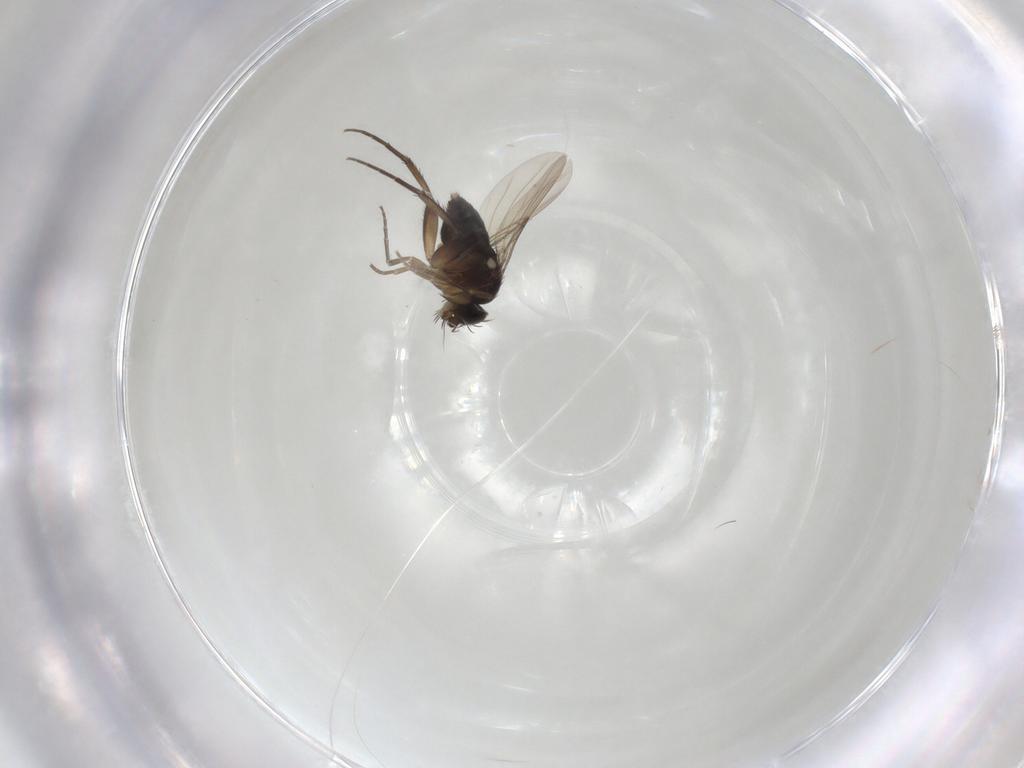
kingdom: Animalia
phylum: Arthropoda
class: Insecta
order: Diptera
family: Phoridae
